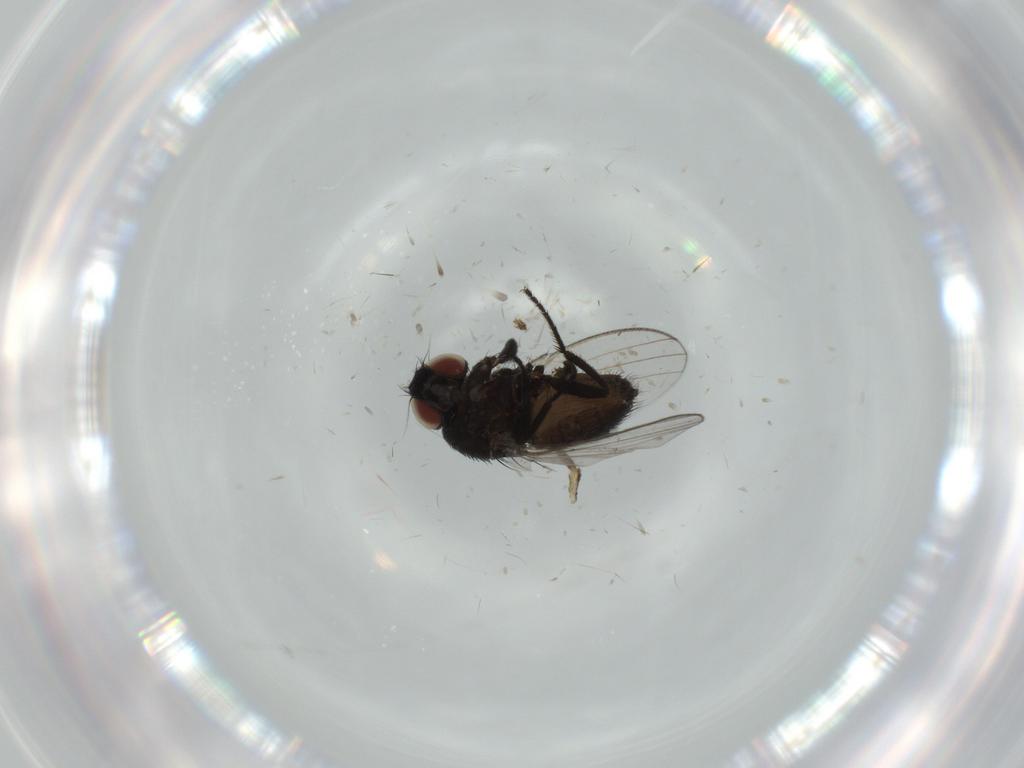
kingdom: Animalia
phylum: Arthropoda
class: Insecta
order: Diptera
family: Milichiidae
